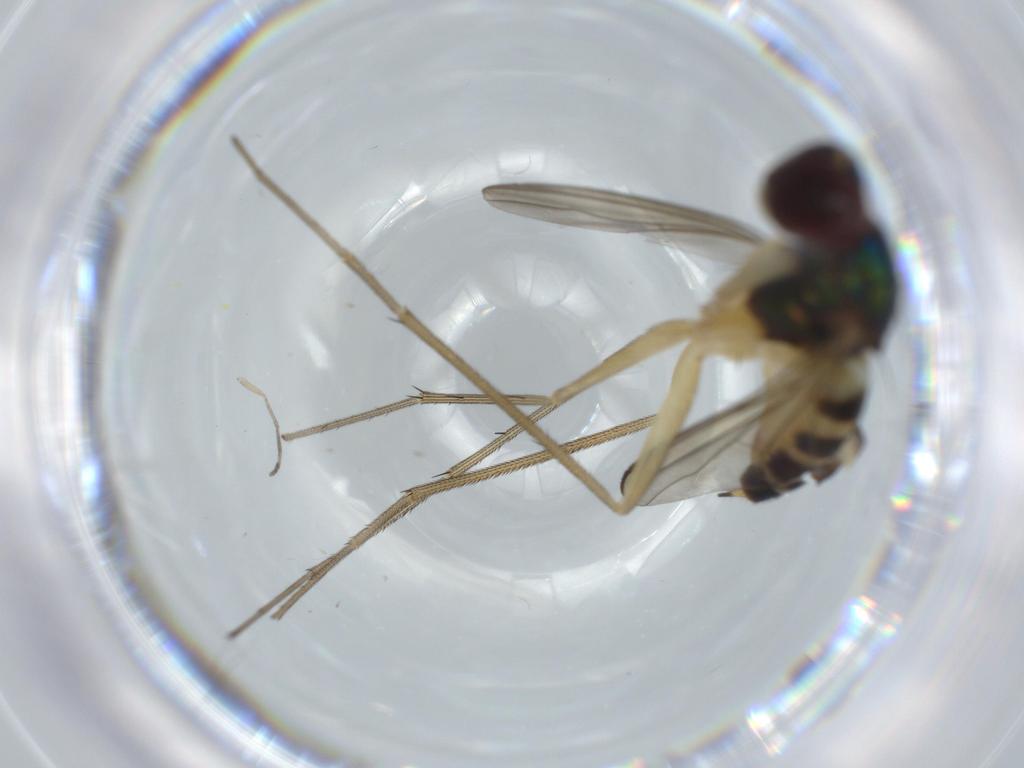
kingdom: Animalia
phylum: Arthropoda
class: Insecta
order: Diptera
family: Dolichopodidae
